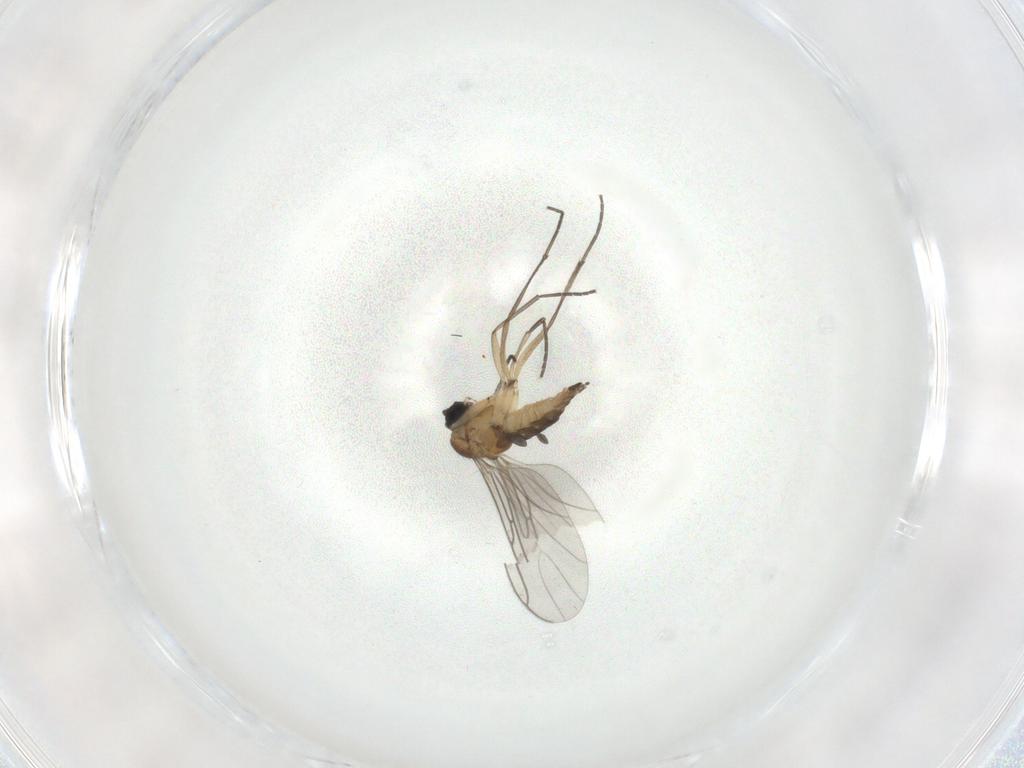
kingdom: Animalia
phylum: Arthropoda
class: Insecta
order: Diptera
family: Sciaridae
